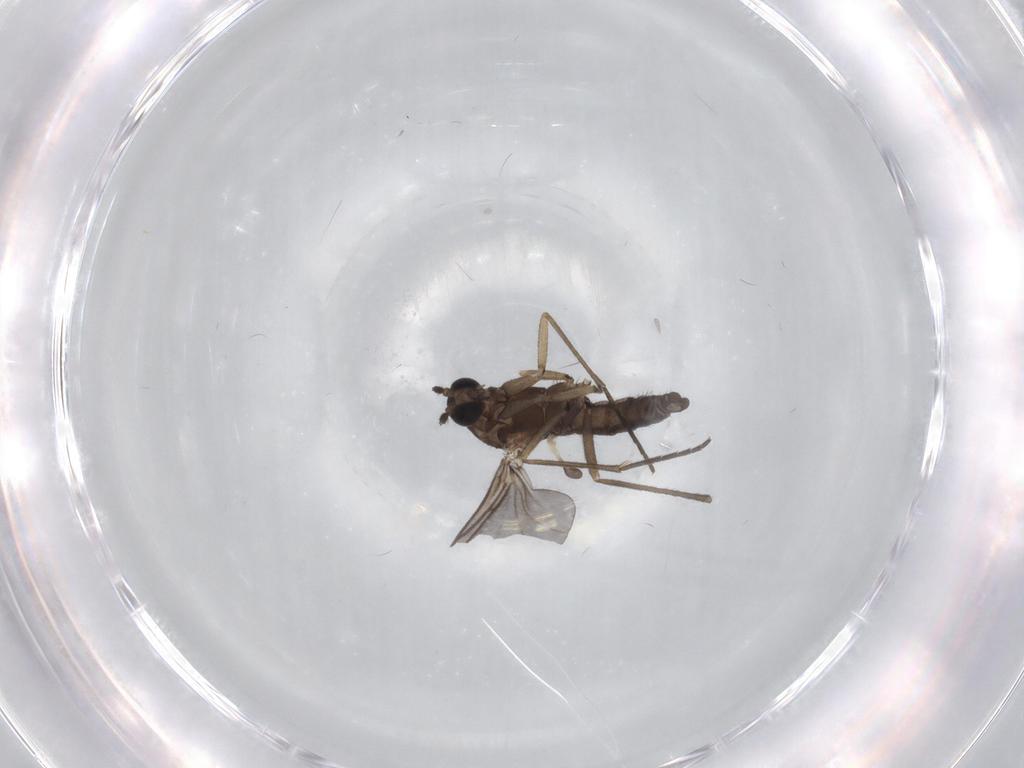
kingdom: Animalia
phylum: Arthropoda
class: Insecta
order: Diptera
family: Sciaridae
